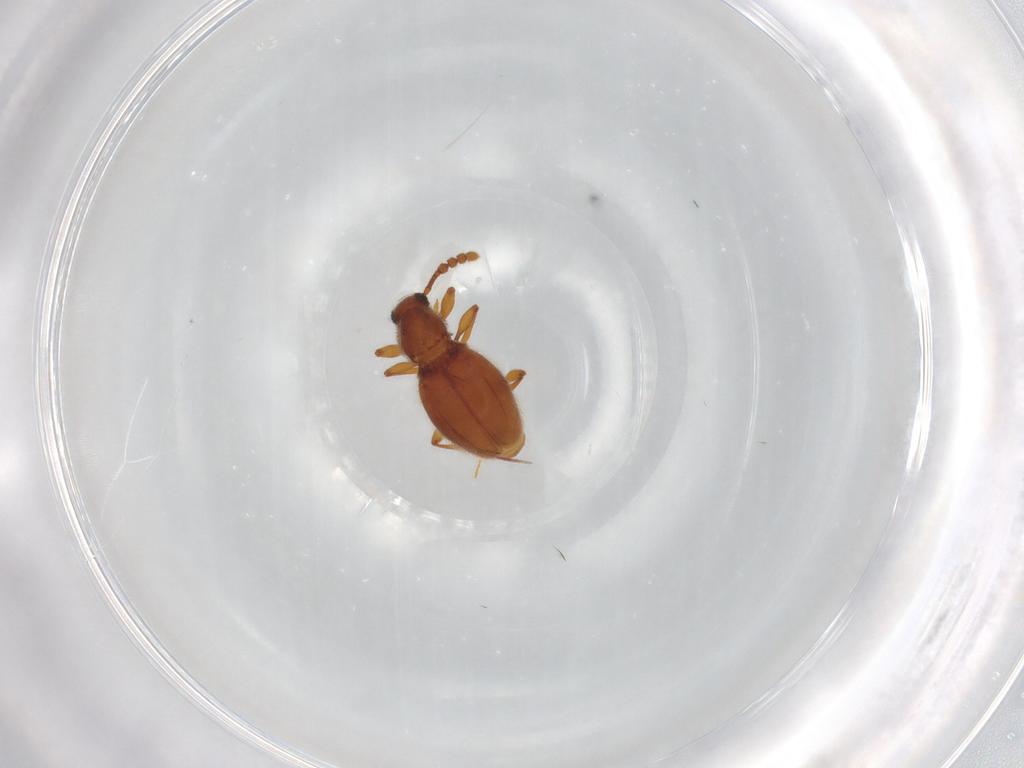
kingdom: Animalia
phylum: Arthropoda
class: Insecta
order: Coleoptera
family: Staphylinidae
